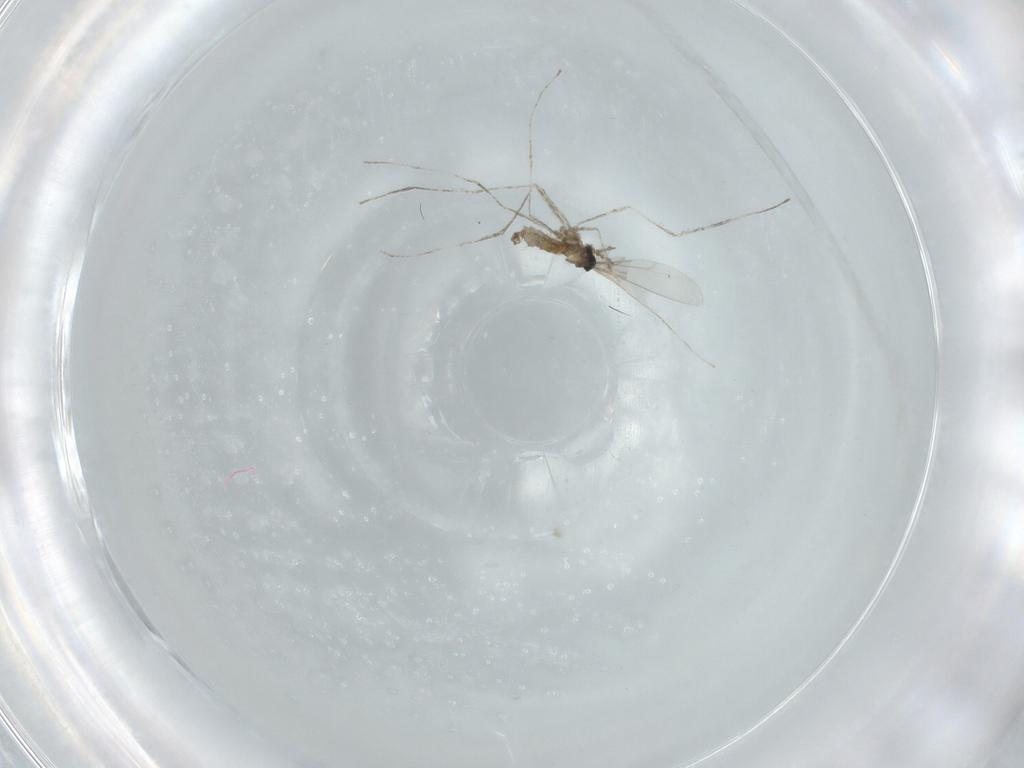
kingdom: Animalia
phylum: Arthropoda
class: Insecta
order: Diptera
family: Cecidomyiidae
